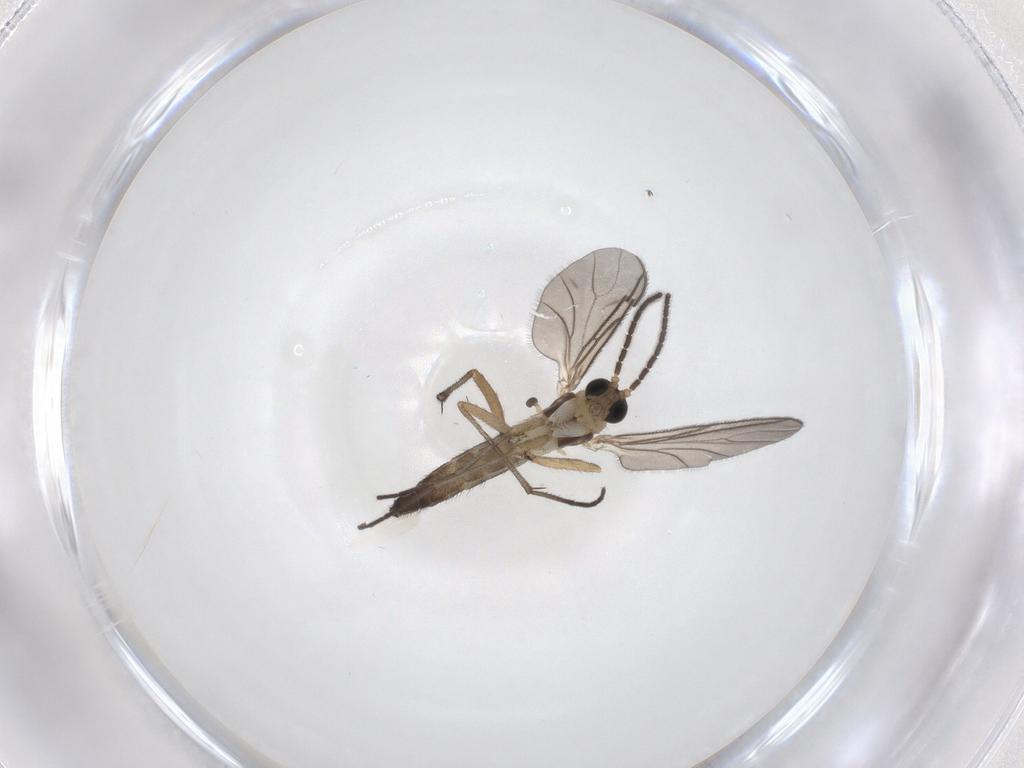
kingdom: Animalia
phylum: Arthropoda
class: Insecta
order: Diptera
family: Sciaridae
